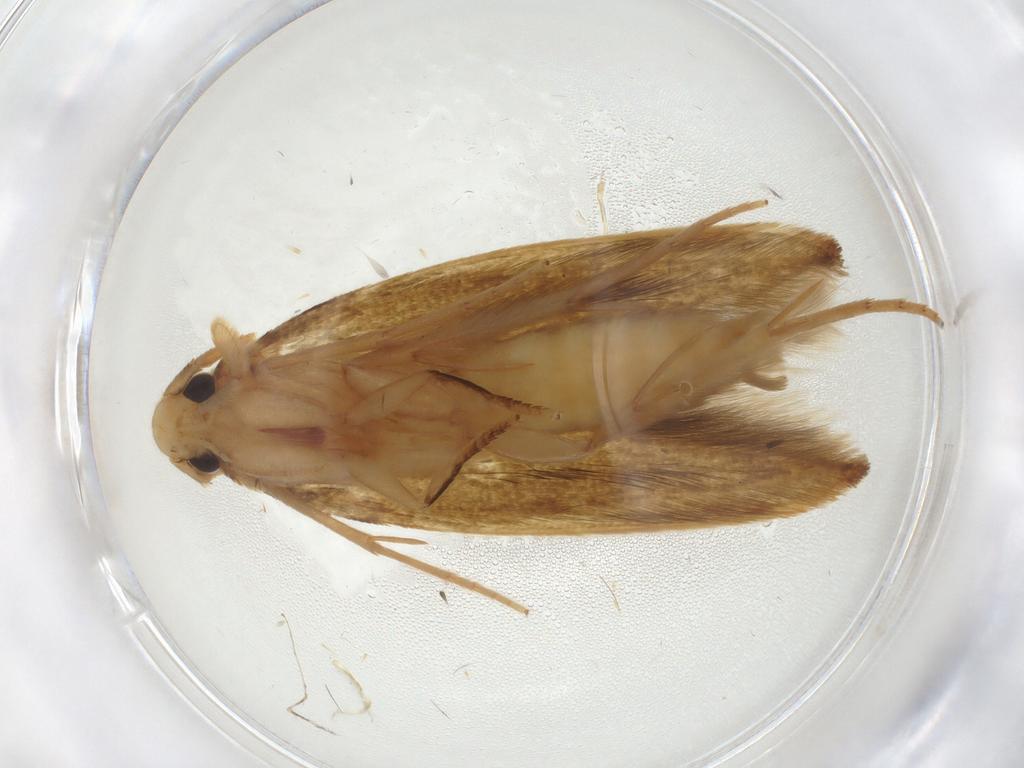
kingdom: Animalia
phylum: Arthropoda
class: Insecta
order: Lepidoptera
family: Tineidae
